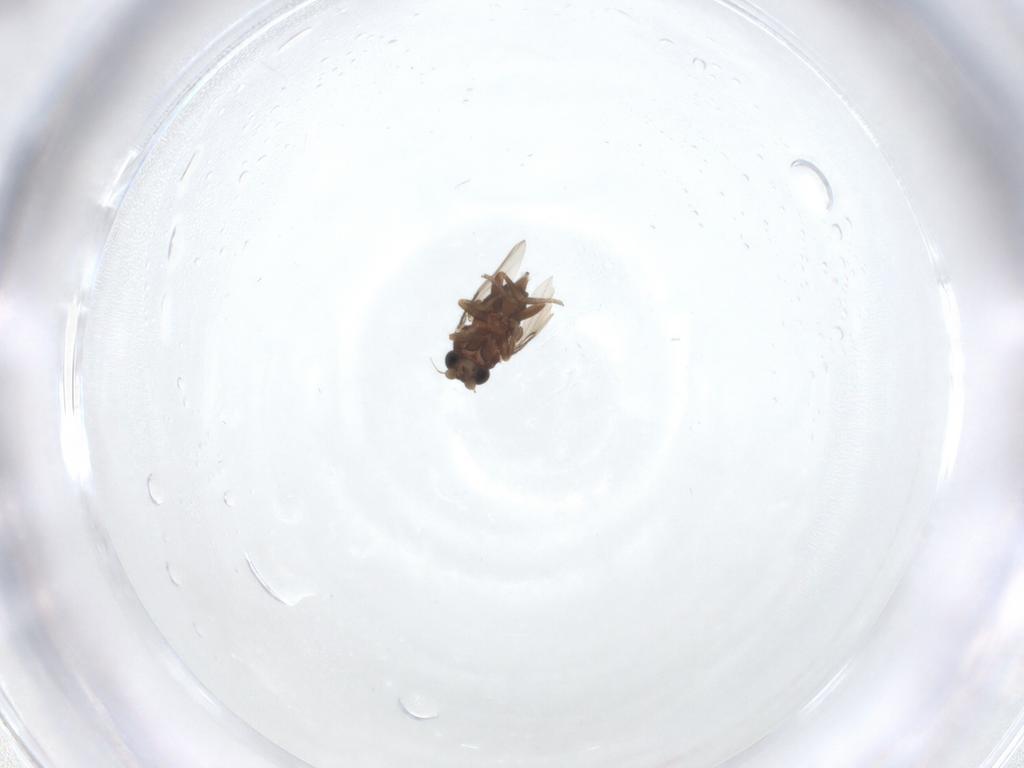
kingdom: Animalia
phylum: Arthropoda
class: Insecta
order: Diptera
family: Phoridae
